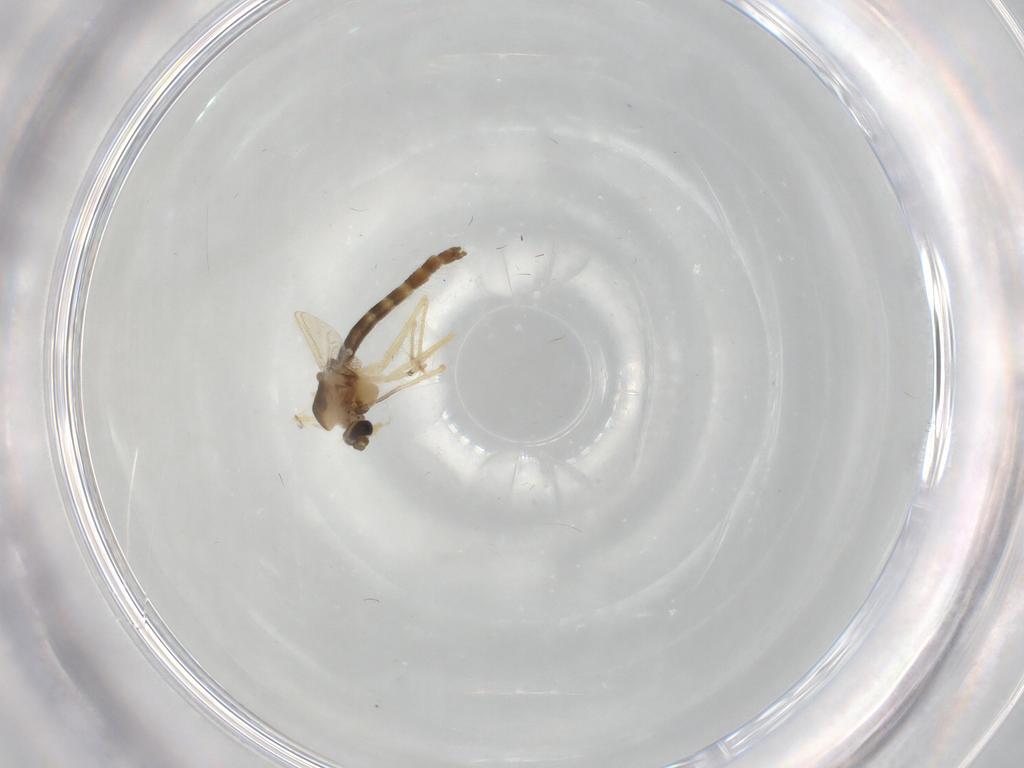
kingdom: Animalia
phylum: Arthropoda
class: Insecta
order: Diptera
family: Chironomidae
